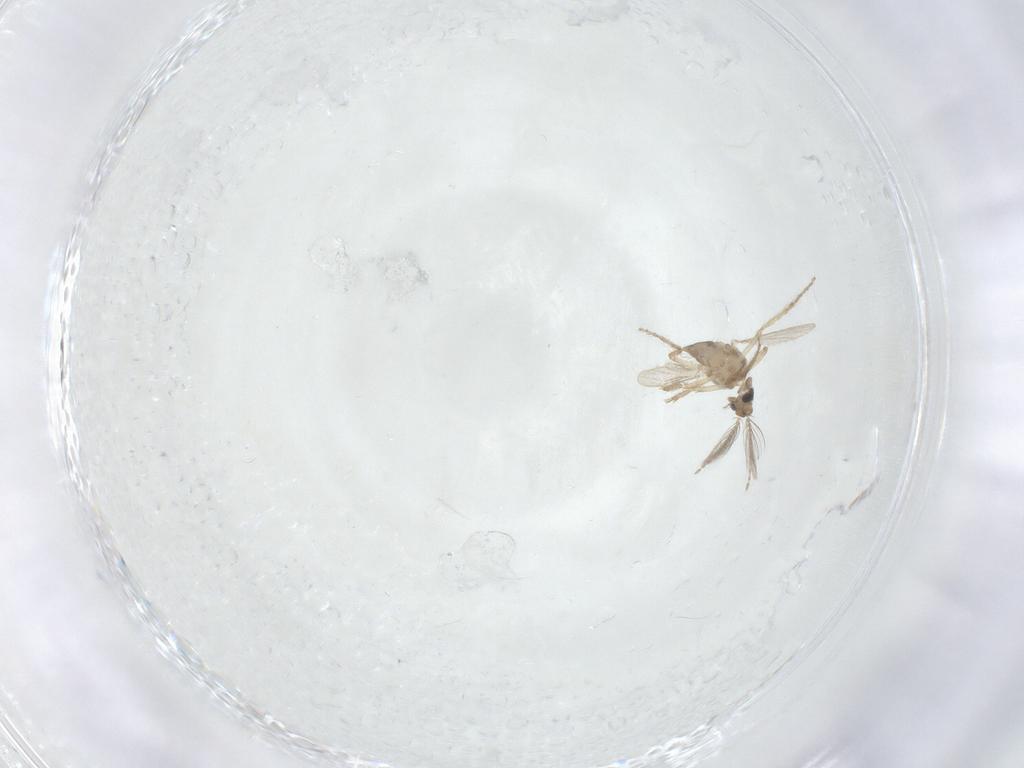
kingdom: Animalia
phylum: Arthropoda
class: Insecta
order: Diptera
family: Ceratopogonidae
